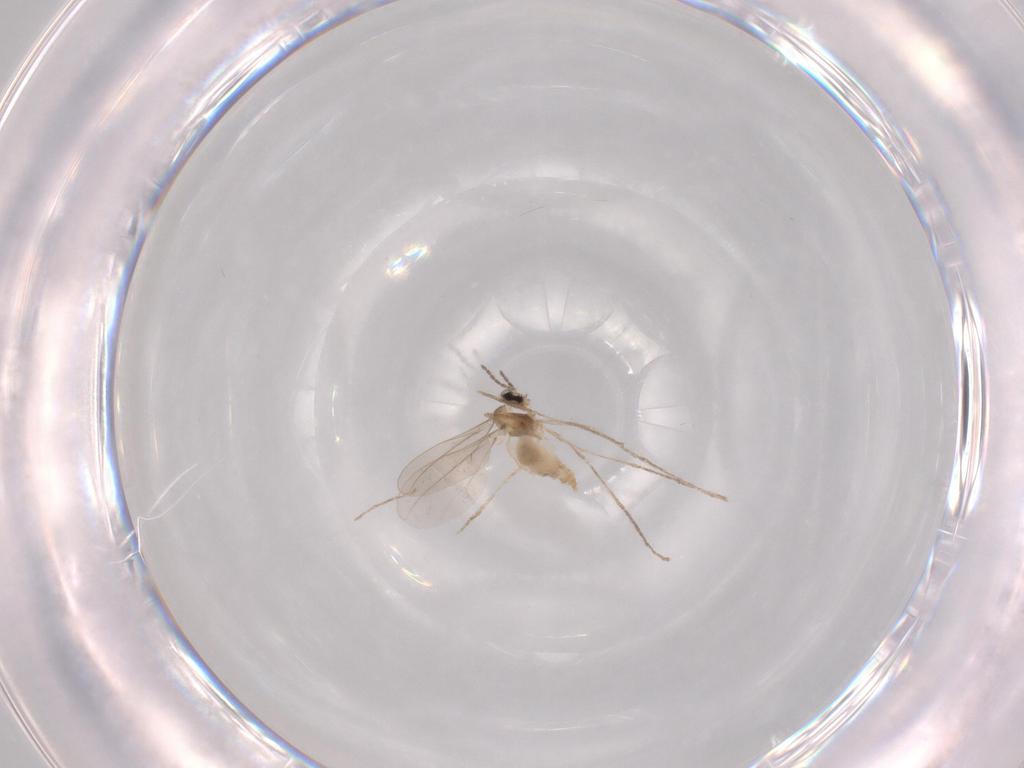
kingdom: Animalia
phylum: Arthropoda
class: Insecta
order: Diptera
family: Cecidomyiidae
